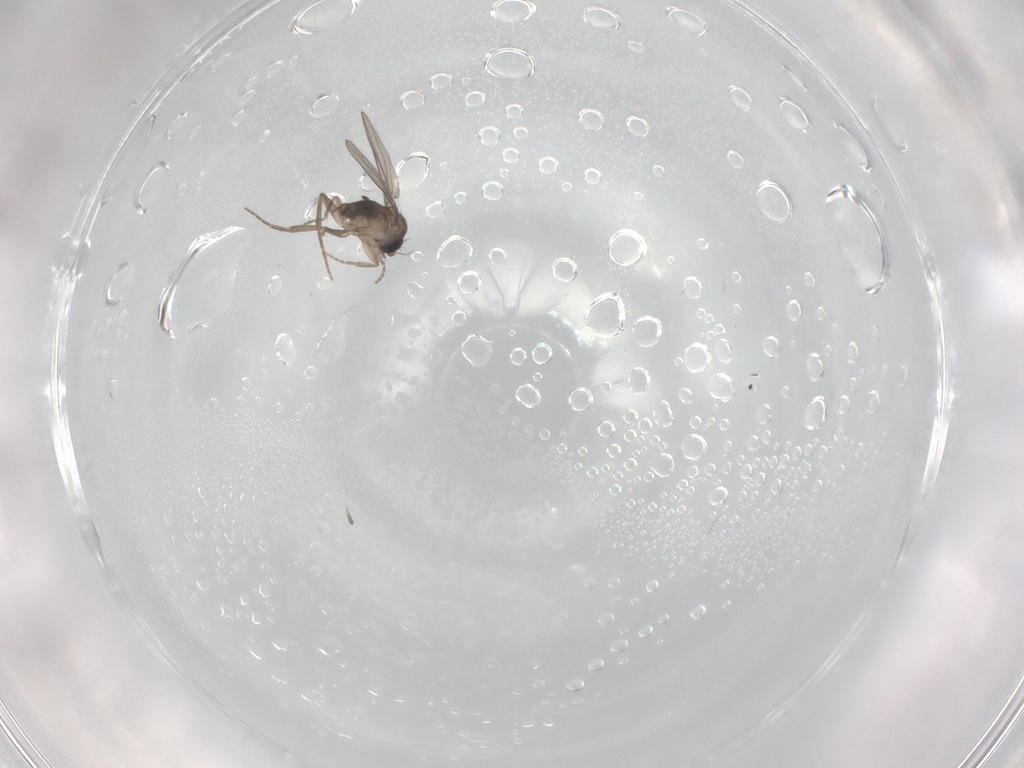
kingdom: Animalia
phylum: Arthropoda
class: Insecta
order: Diptera
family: Phoridae
